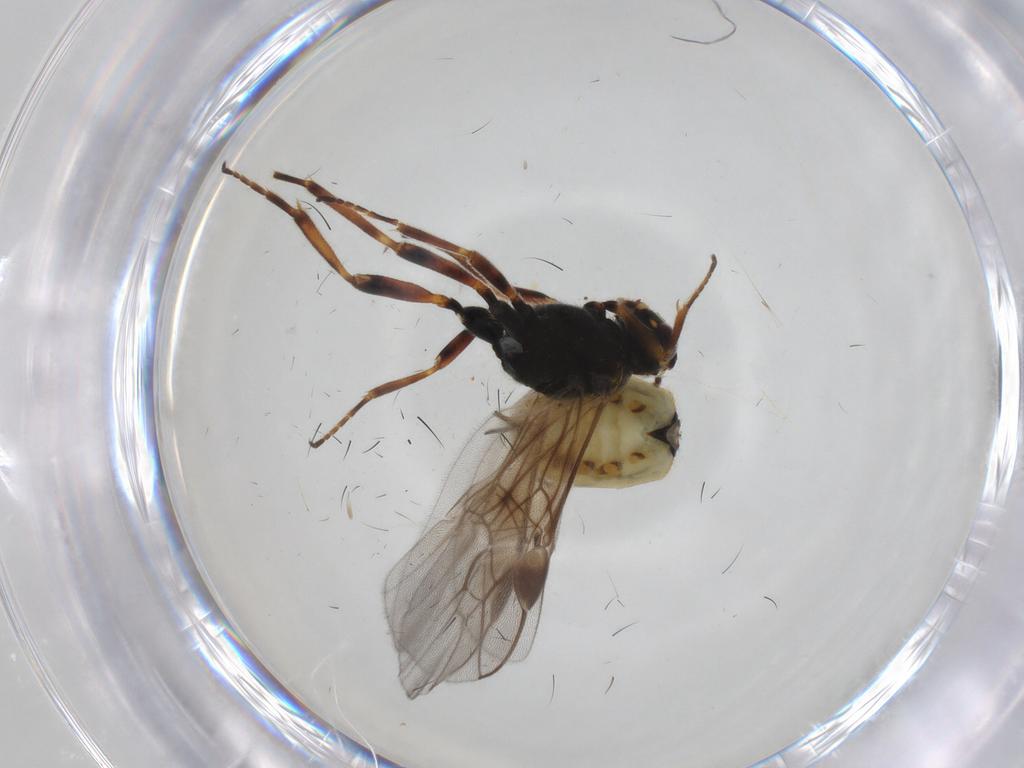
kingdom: Animalia
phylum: Arthropoda
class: Insecta
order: Hymenoptera
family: Braconidae
